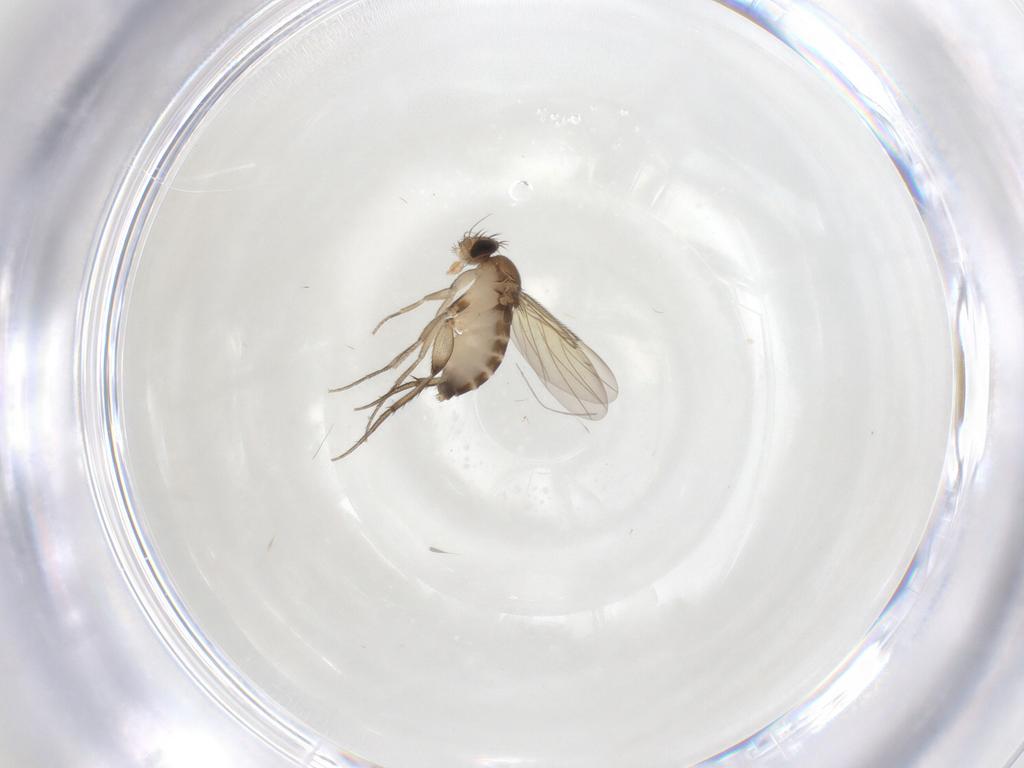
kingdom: Animalia
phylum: Arthropoda
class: Insecta
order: Diptera
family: Phoridae
